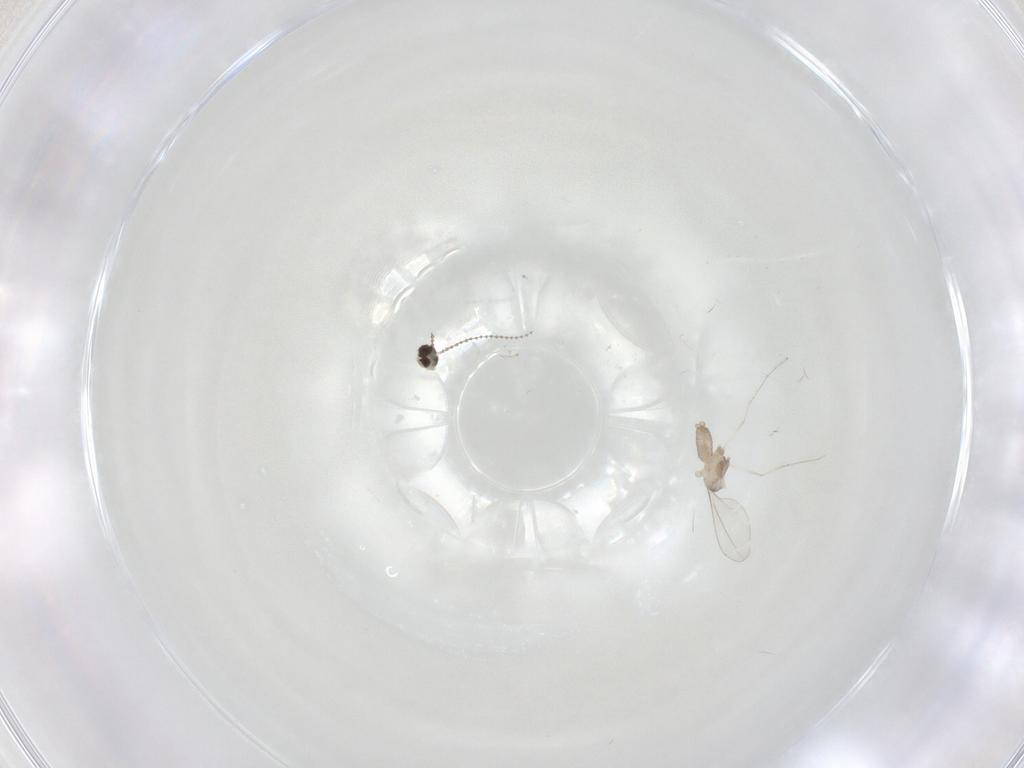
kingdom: Animalia
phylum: Arthropoda
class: Insecta
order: Diptera
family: Cecidomyiidae
